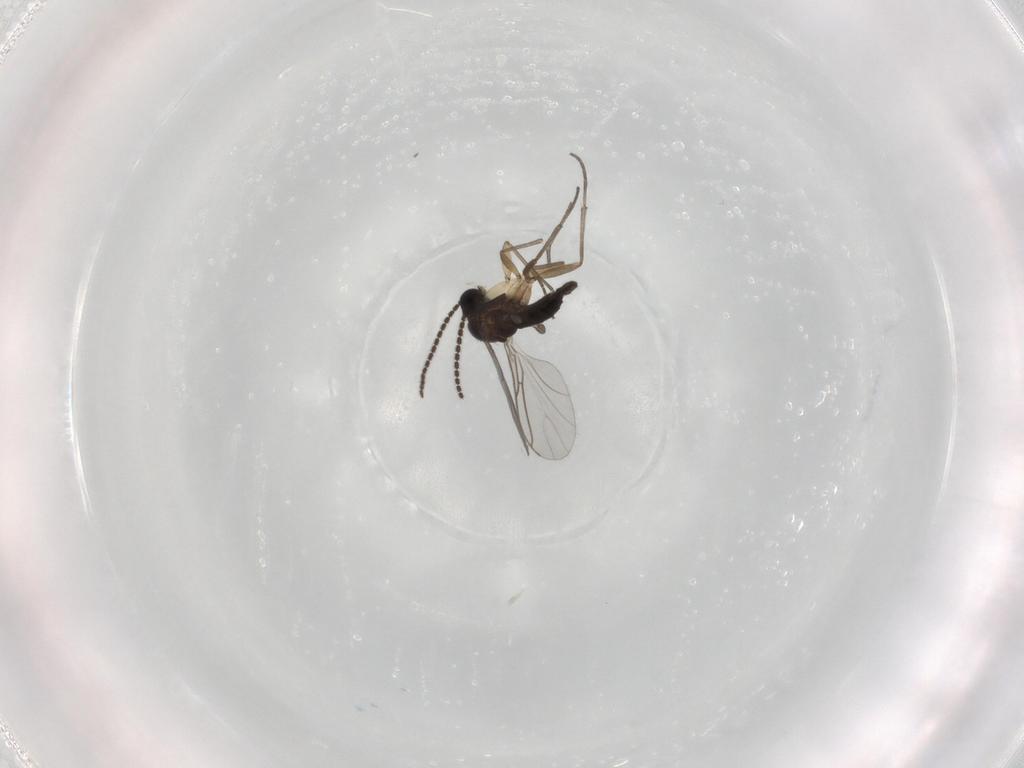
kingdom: Animalia
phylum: Arthropoda
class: Insecta
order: Diptera
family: Sciaridae
